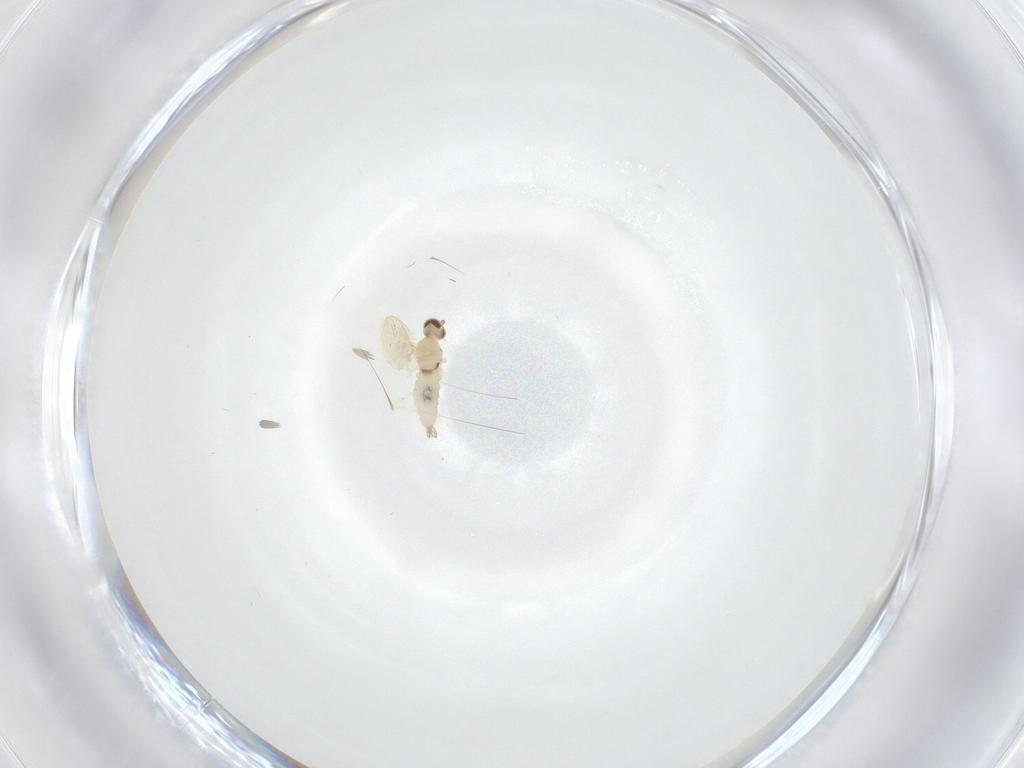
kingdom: Animalia
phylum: Arthropoda
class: Insecta
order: Diptera
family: Cecidomyiidae
